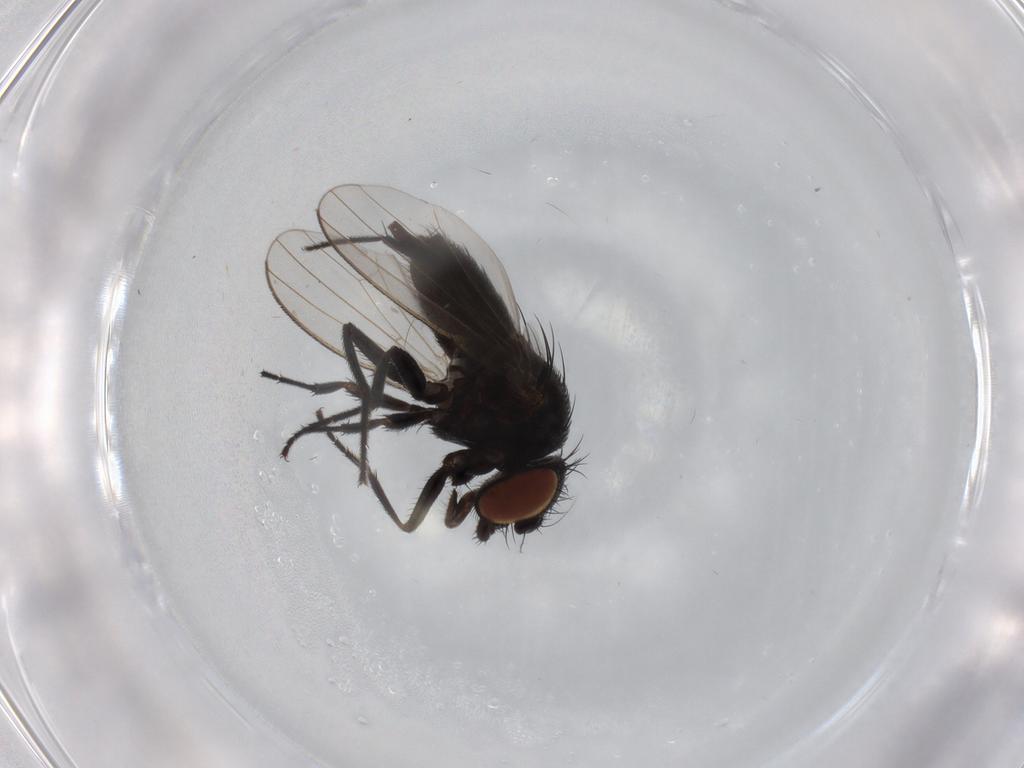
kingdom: Animalia
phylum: Arthropoda
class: Insecta
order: Diptera
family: Milichiidae
